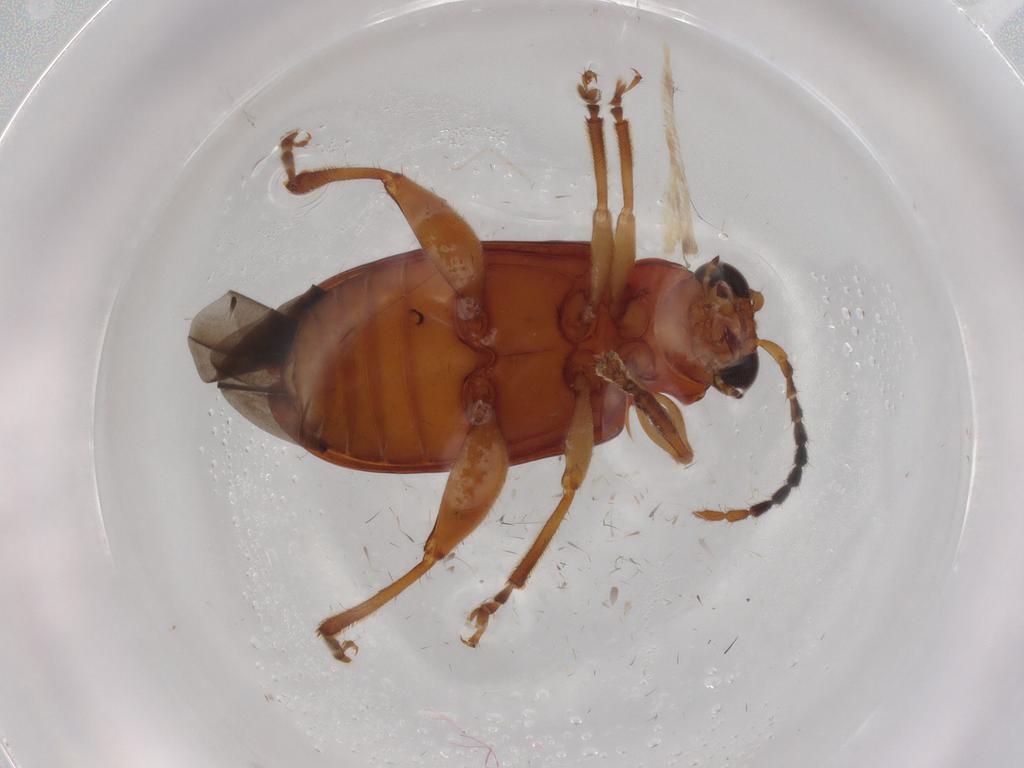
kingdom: Animalia
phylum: Arthropoda
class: Insecta
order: Coleoptera
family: Chrysomelidae
